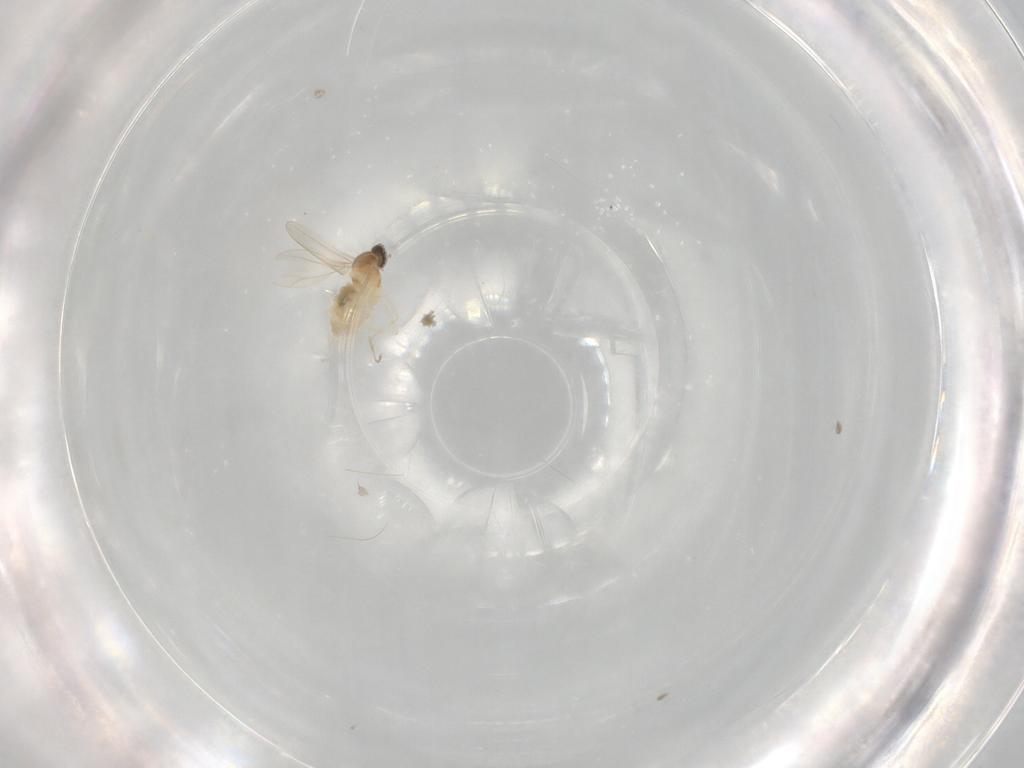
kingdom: Animalia
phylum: Arthropoda
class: Insecta
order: Diptera
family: Cecidomyiidae
